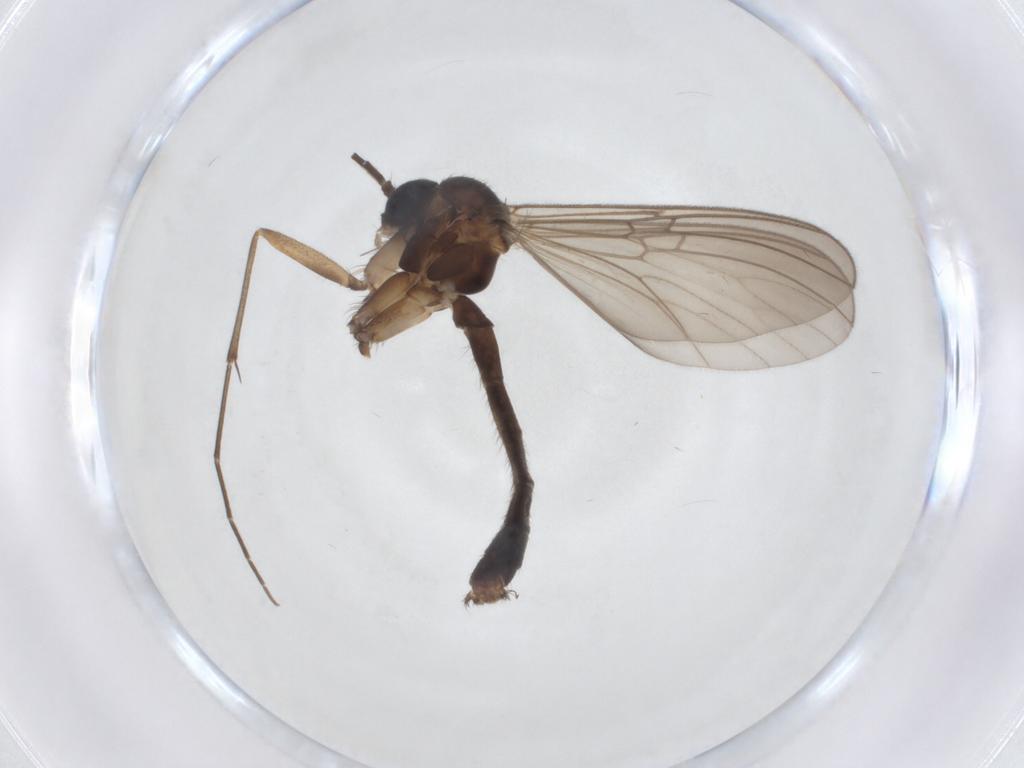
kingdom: Animalia
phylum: Arthropoda
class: Insecta
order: Diptera
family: Mycetophilidae
